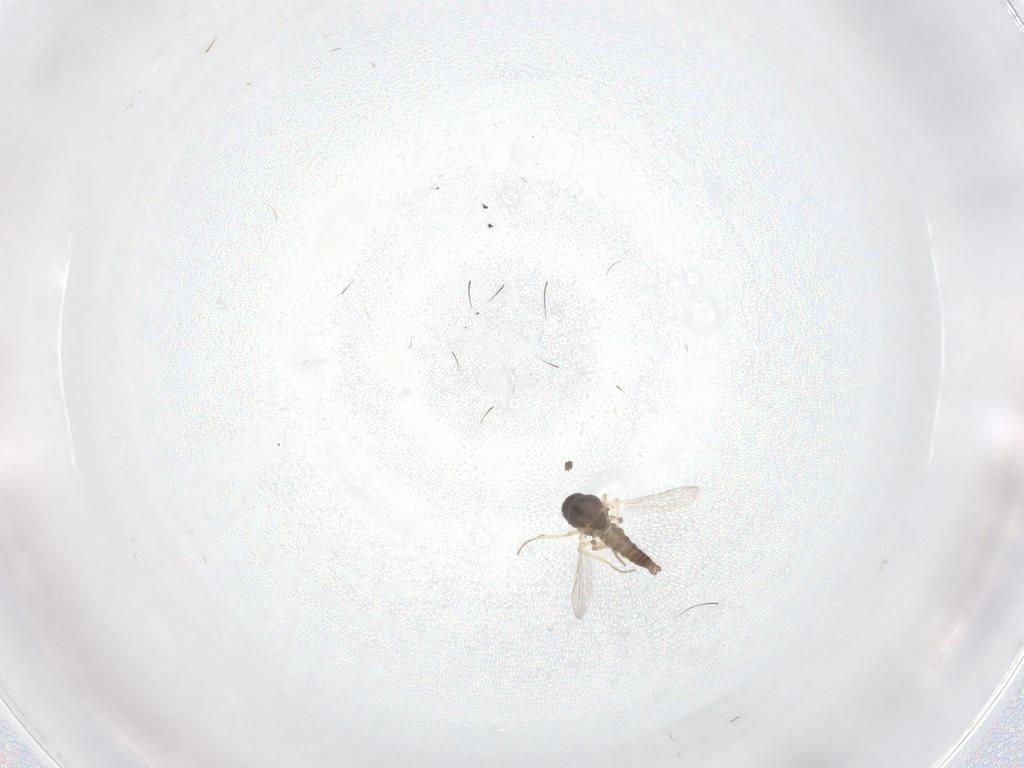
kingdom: Animalia
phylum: Arthropoda
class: Insecta
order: Diptera
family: Ceratopogonidae
